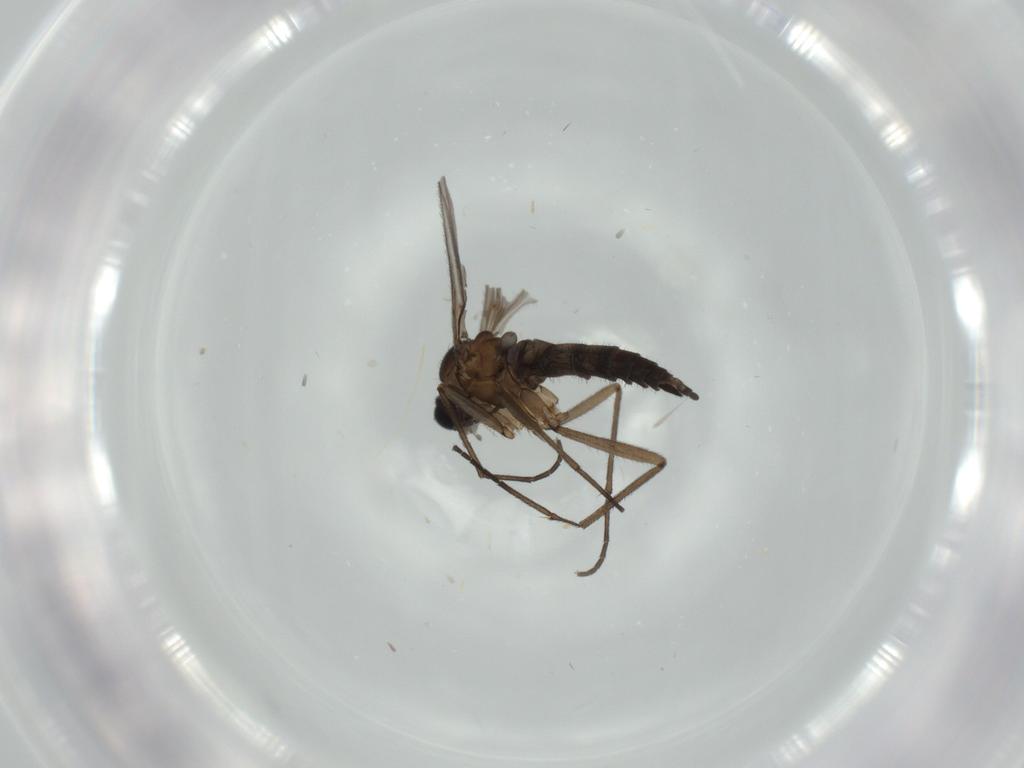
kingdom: Animalia
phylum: Arthropoda
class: Insecta
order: Diptera
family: Sciaridae
